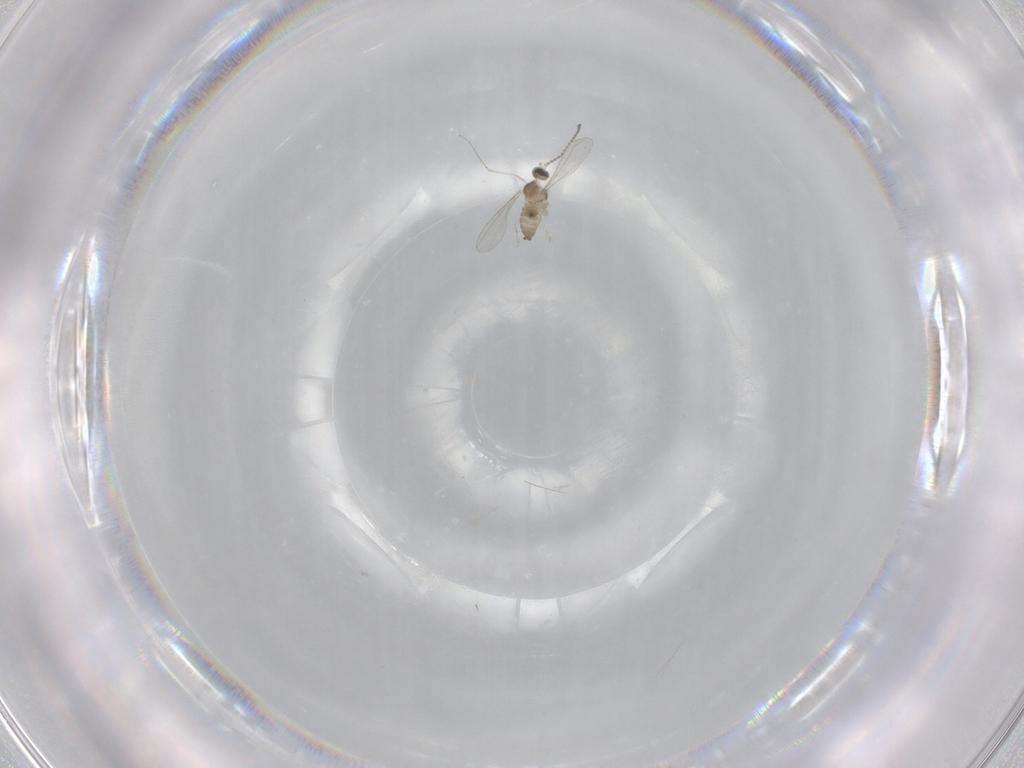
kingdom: Animalia
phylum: Arthropoda
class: Insecta
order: Diptera
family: Cecidomyiidae
